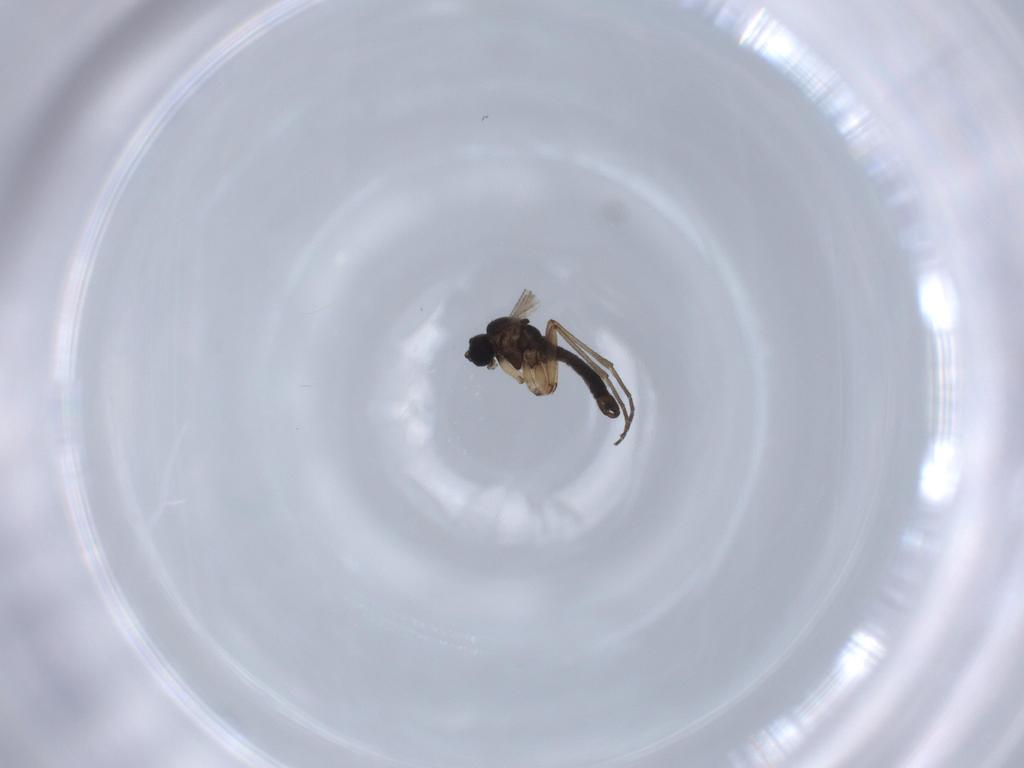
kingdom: Animalia
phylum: Arthropoda
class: Insecta
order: Diptera
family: Sciaridae
